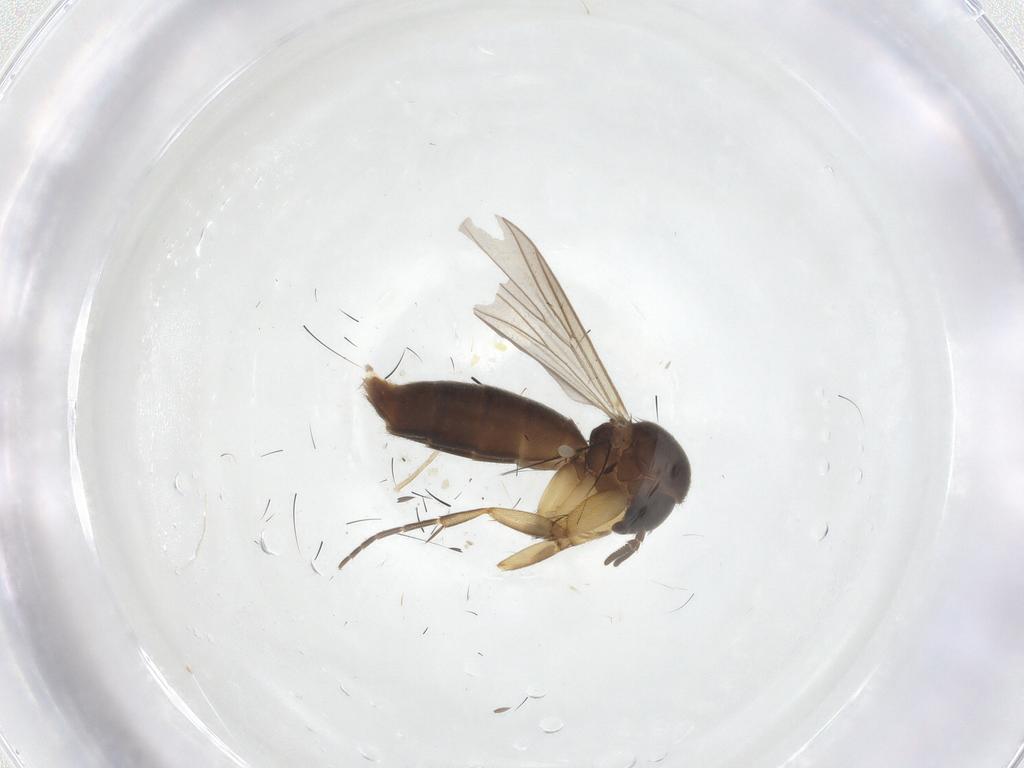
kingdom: Animalia
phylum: Arthropoda
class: Insecta
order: Diptera
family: Mycetophilidae
